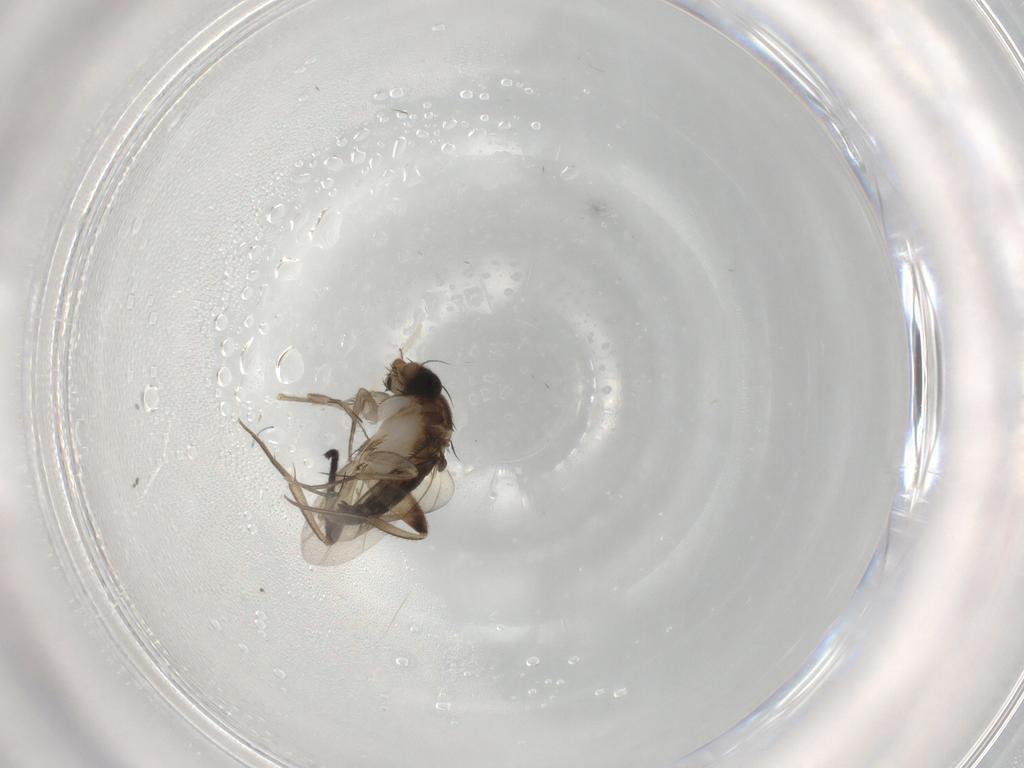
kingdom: Animalia
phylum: Arthropoda
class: Insecta
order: Diptera
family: Phoridae
